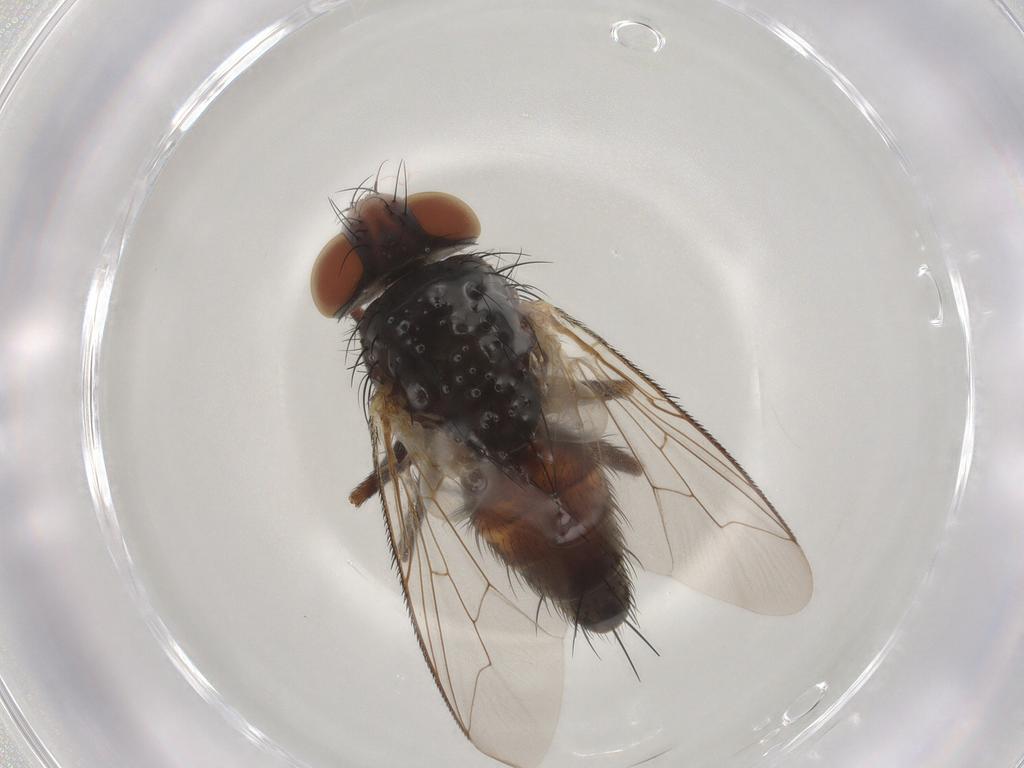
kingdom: Animalia
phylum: Arthropoda
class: Insecta
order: Diptera
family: Sarcophagidae
